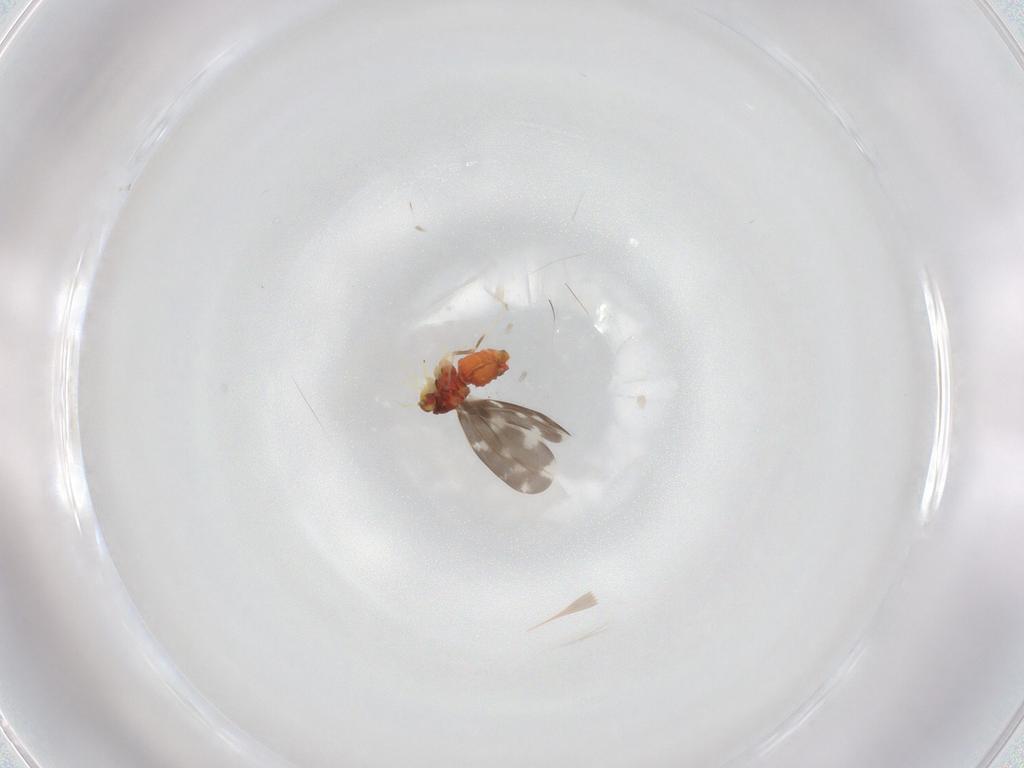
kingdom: Animalia
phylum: Arthropoda
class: Insecta
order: Hemiptera
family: Aleyrodidae
